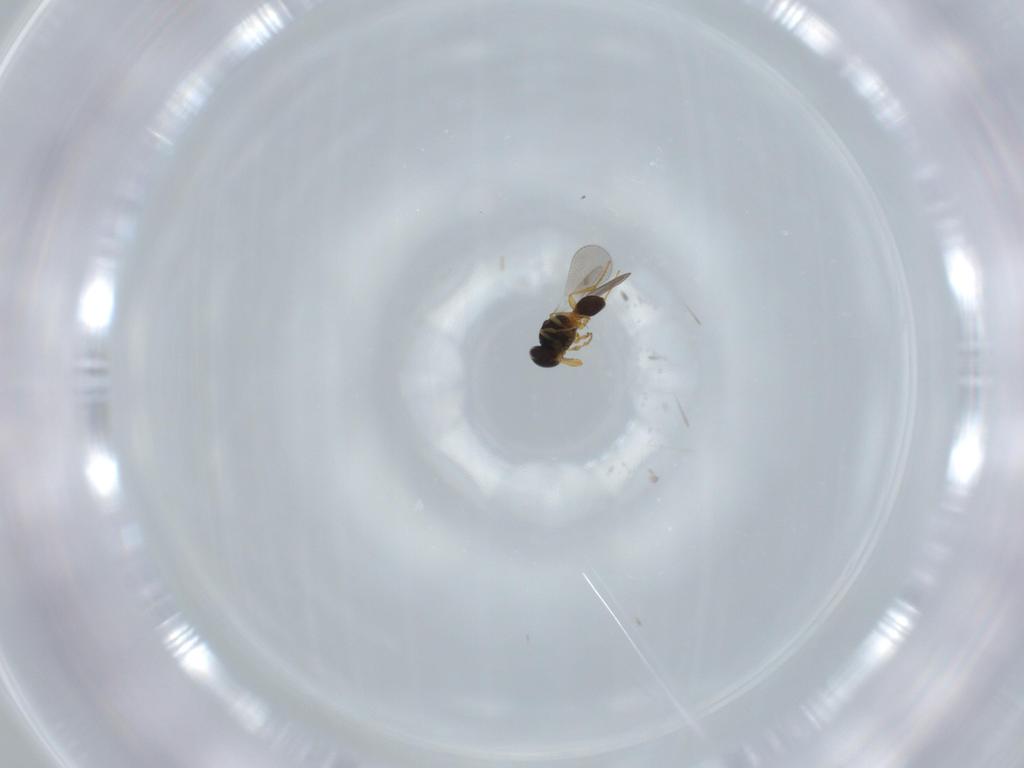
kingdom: Animalia
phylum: Arthropoda
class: Insecta
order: Hymenoptera
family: Platygastridae
